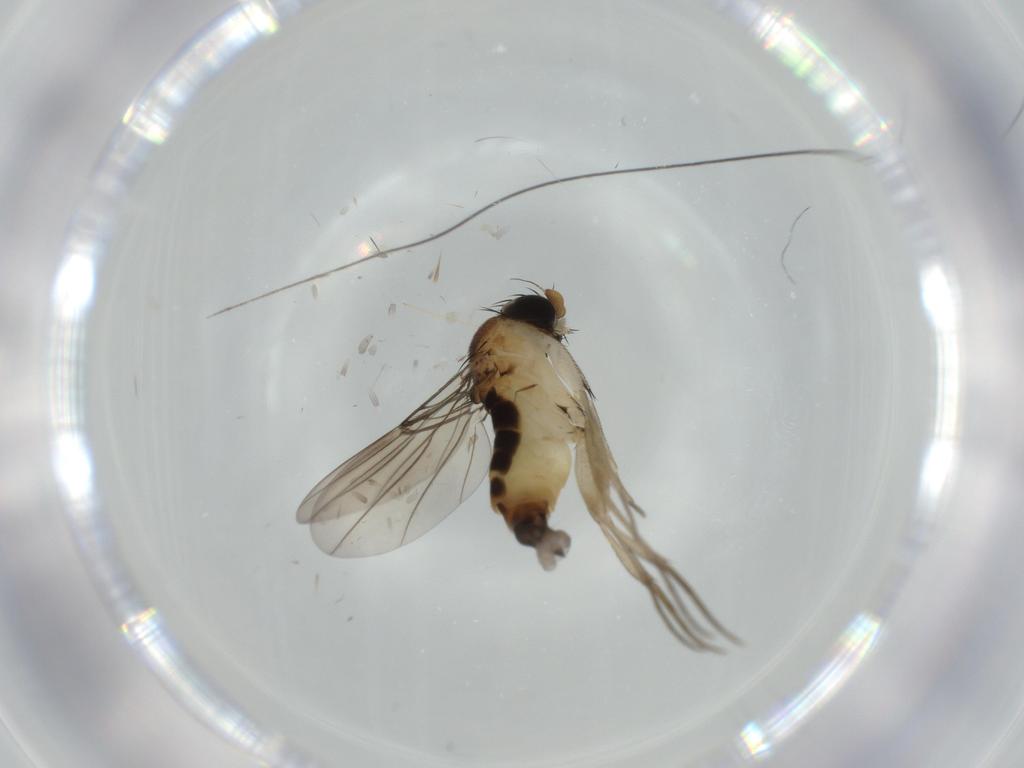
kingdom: Animalia
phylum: Arthropoda
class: Insecta
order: Diptera
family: Phoridae
